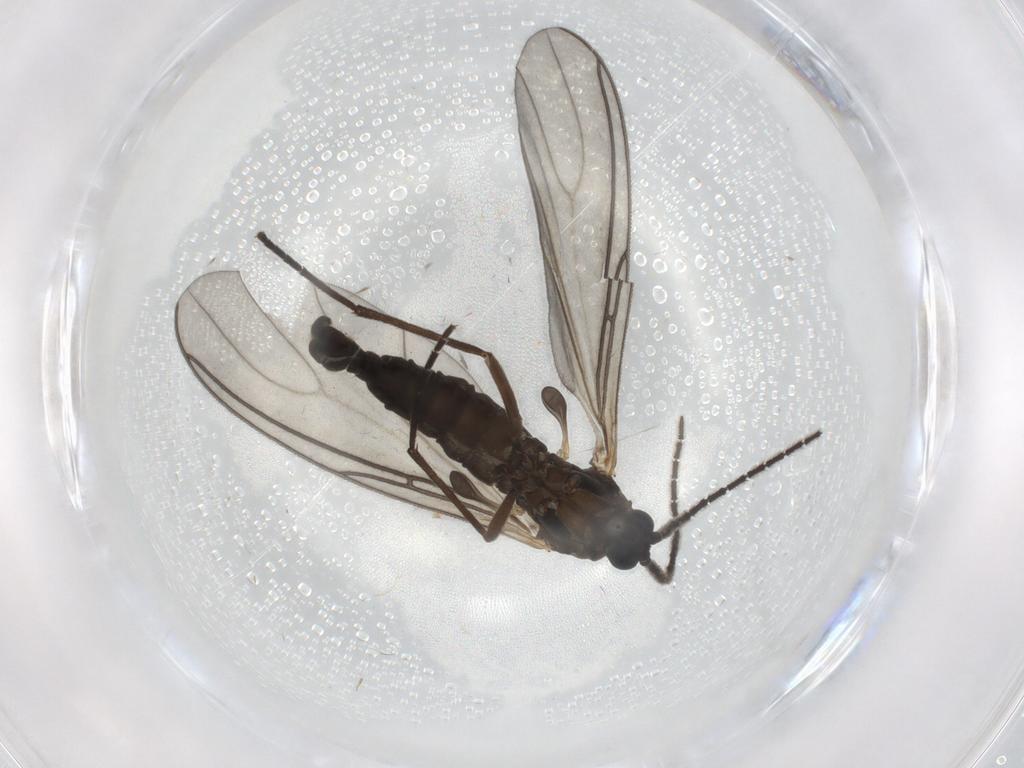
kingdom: Animalia
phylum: Arthropoda
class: Insecta
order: Diptera
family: Sciaridae
